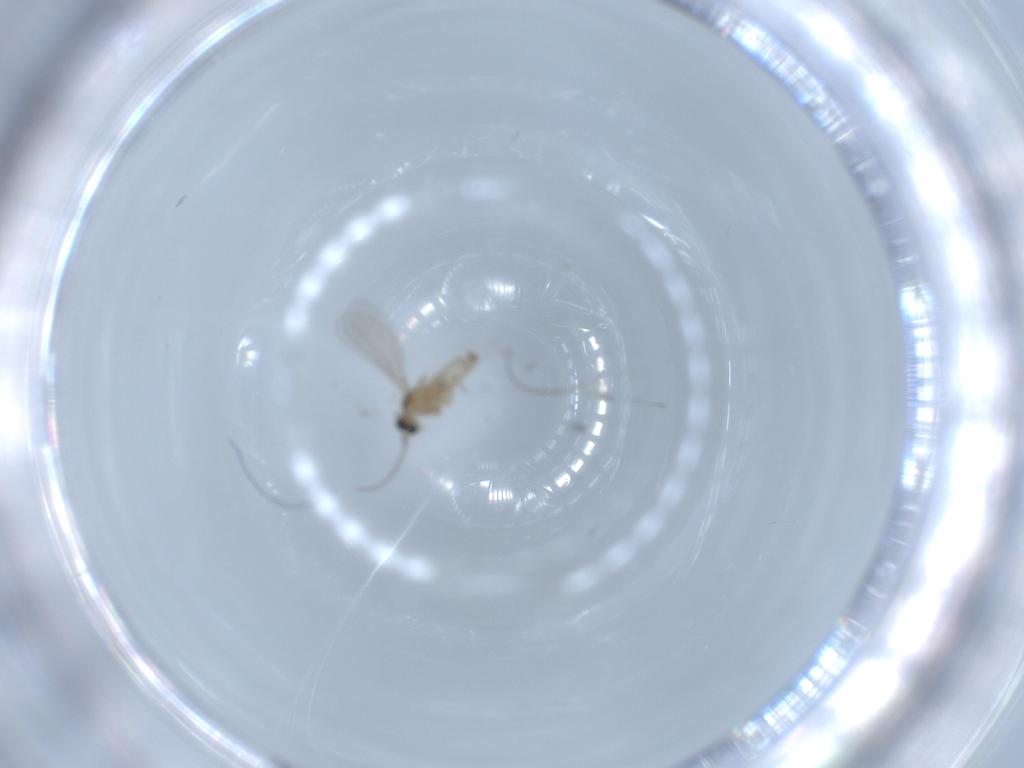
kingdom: Animalia
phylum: Arthropoda
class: Insecta
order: Diptera
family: Cecidomyiidae
